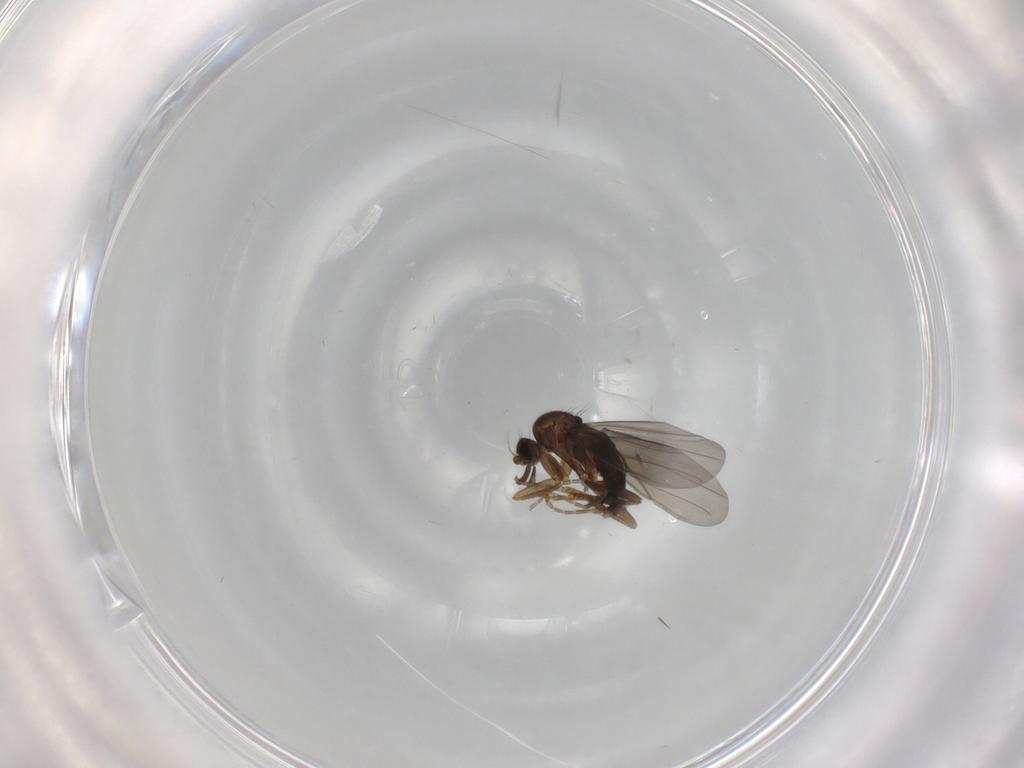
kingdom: Animalia
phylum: Arthropoda
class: Insecta
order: Diptera
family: Phoridae
